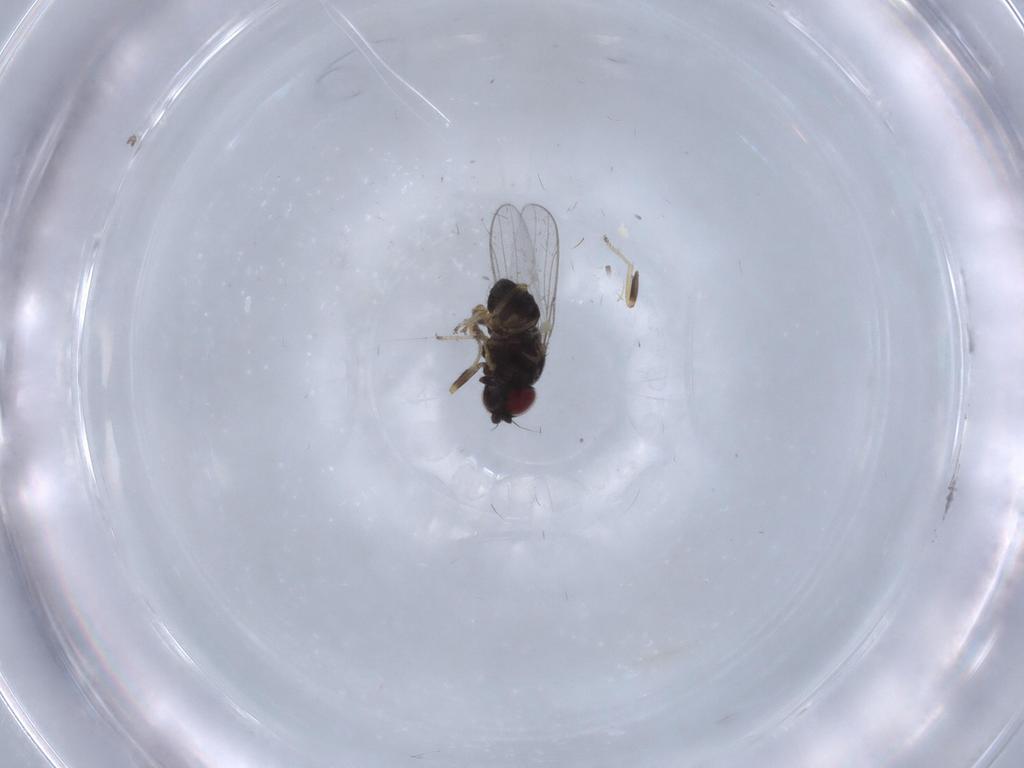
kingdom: Animalia
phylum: Arthropoda
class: Insecta
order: Diptera
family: Chloropidae
